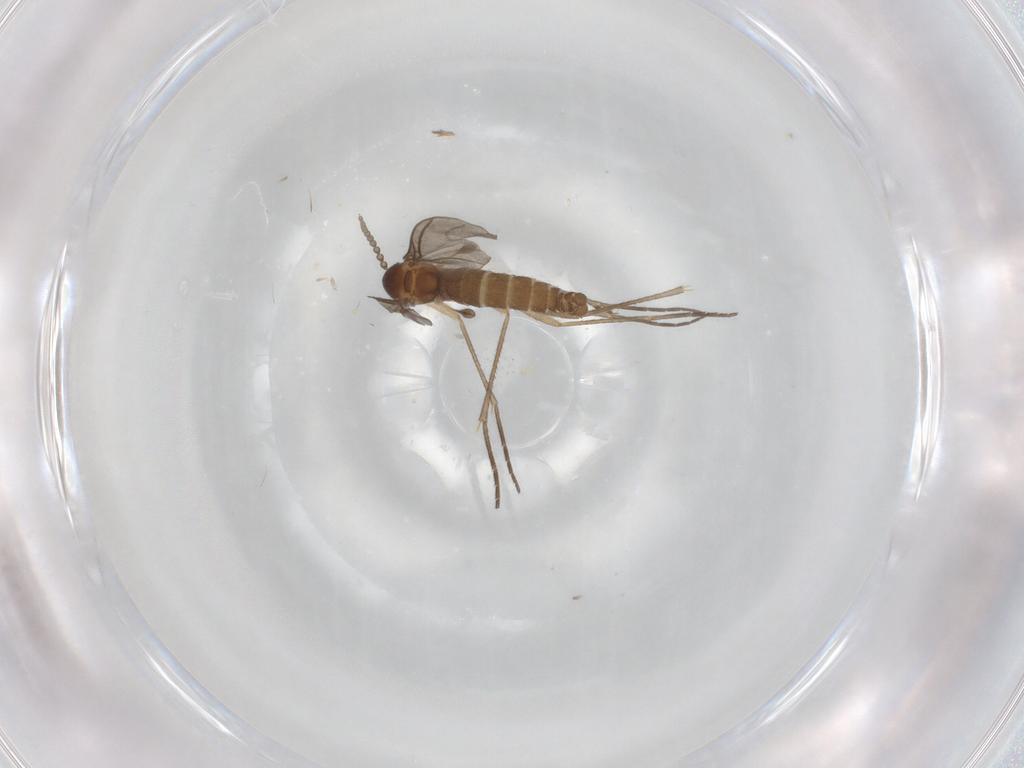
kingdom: Animalia
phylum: Arthropoda
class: Insecta
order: Diptera
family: Sciaridae
